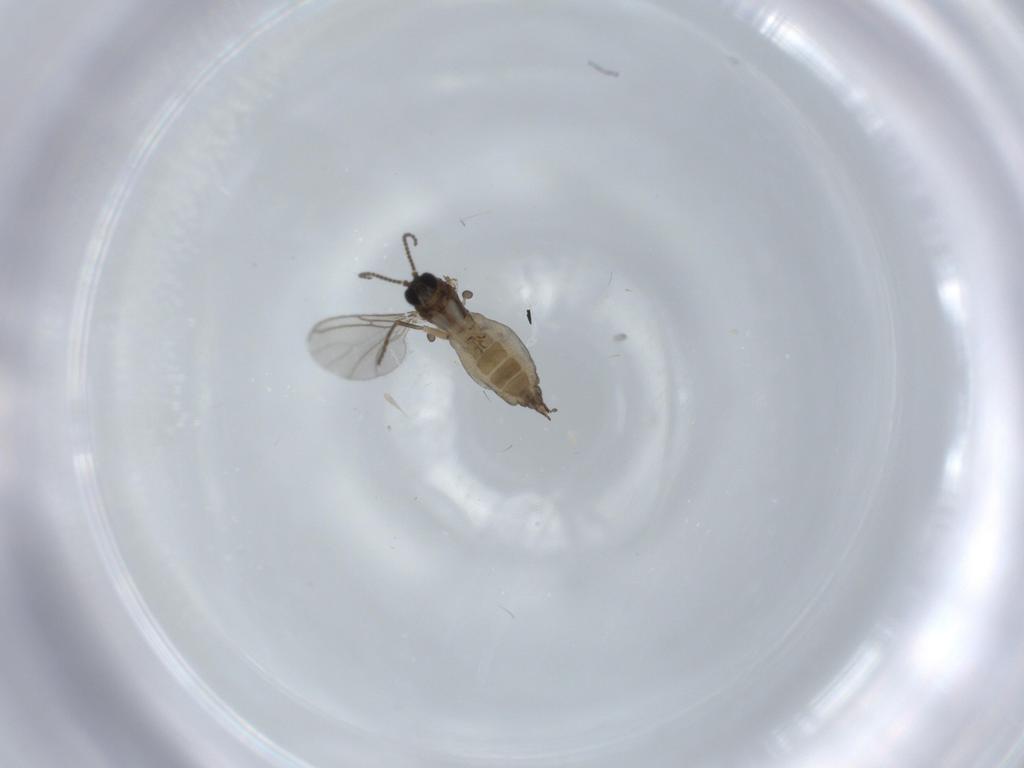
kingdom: Animalia
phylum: Arthropoda
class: Insecta
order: Diptera
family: Sciaridae
